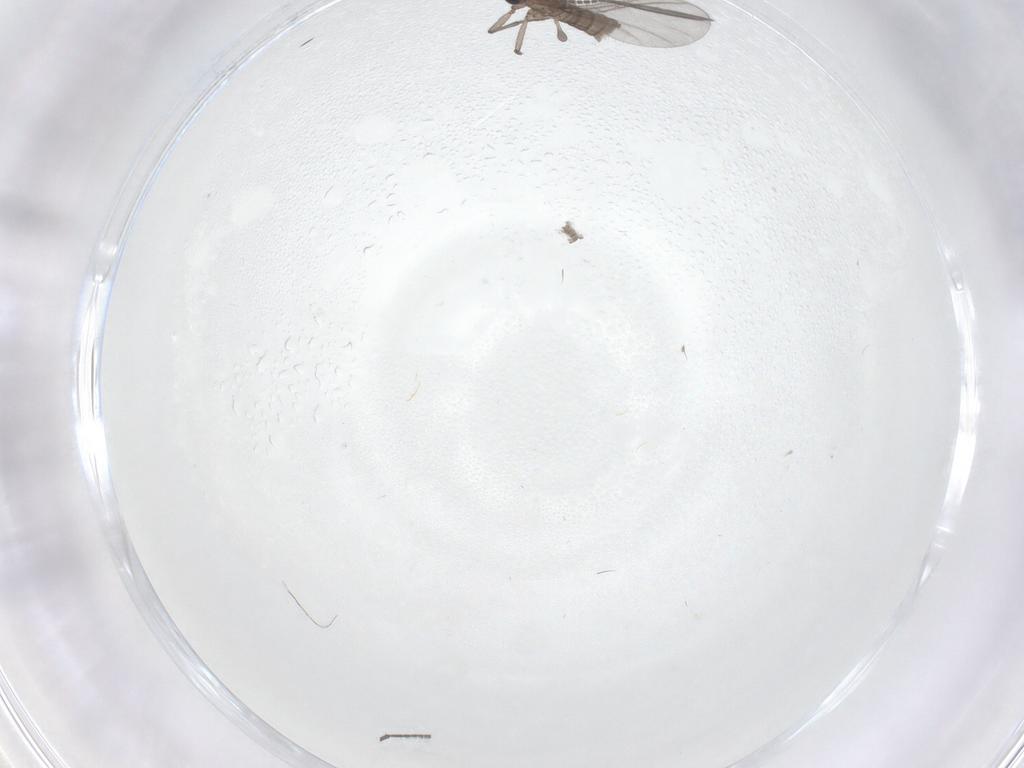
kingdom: Animalia
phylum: Arthropoda
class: Insecta
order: Diptera
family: Sciaridae
